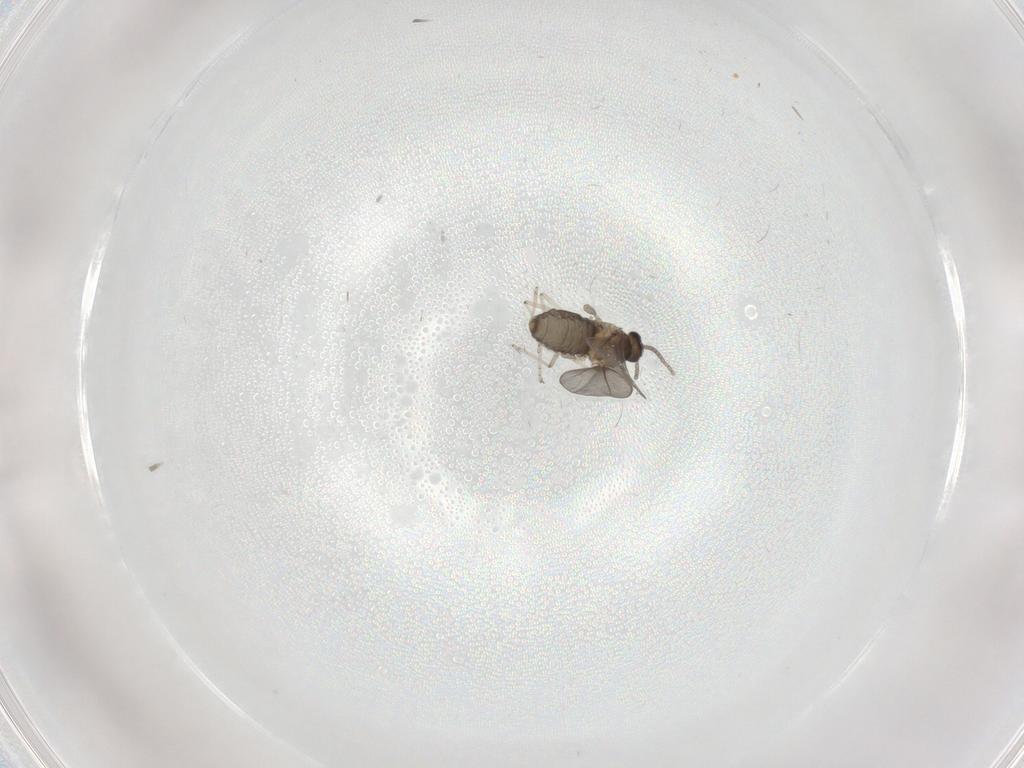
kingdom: Animalia
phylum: Arthropoda
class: Insecta
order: Diptera
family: Cecidomyiidae
